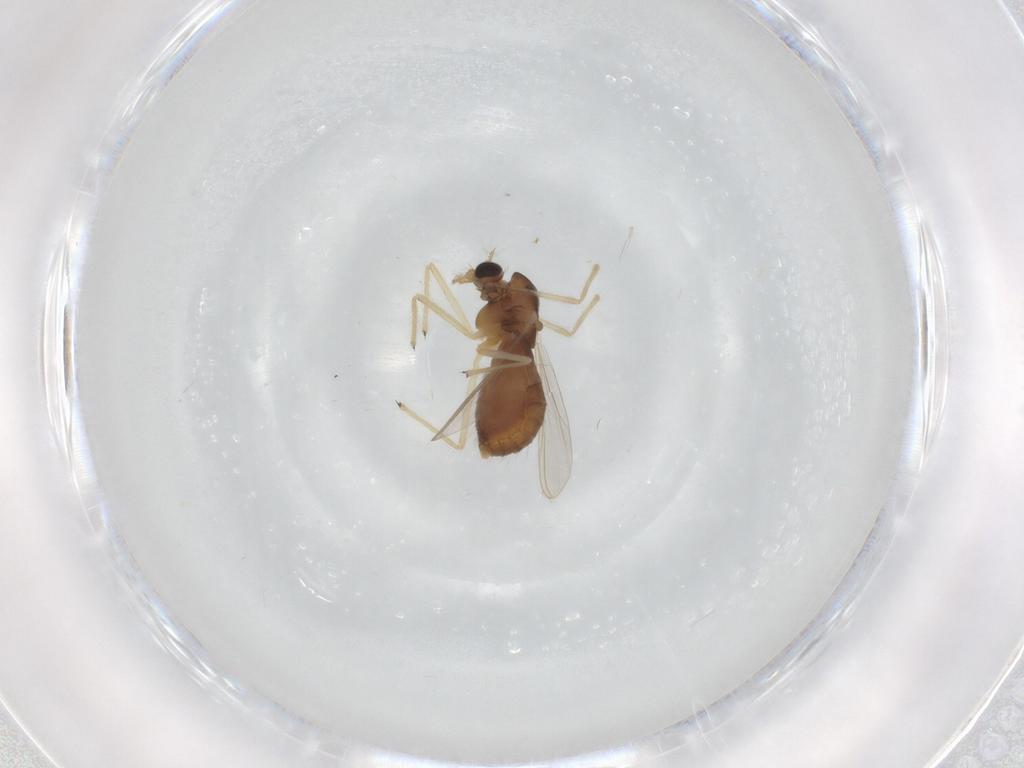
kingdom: Animalia
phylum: Arthropoda
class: Insecta
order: Diptera
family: Chironomidae
